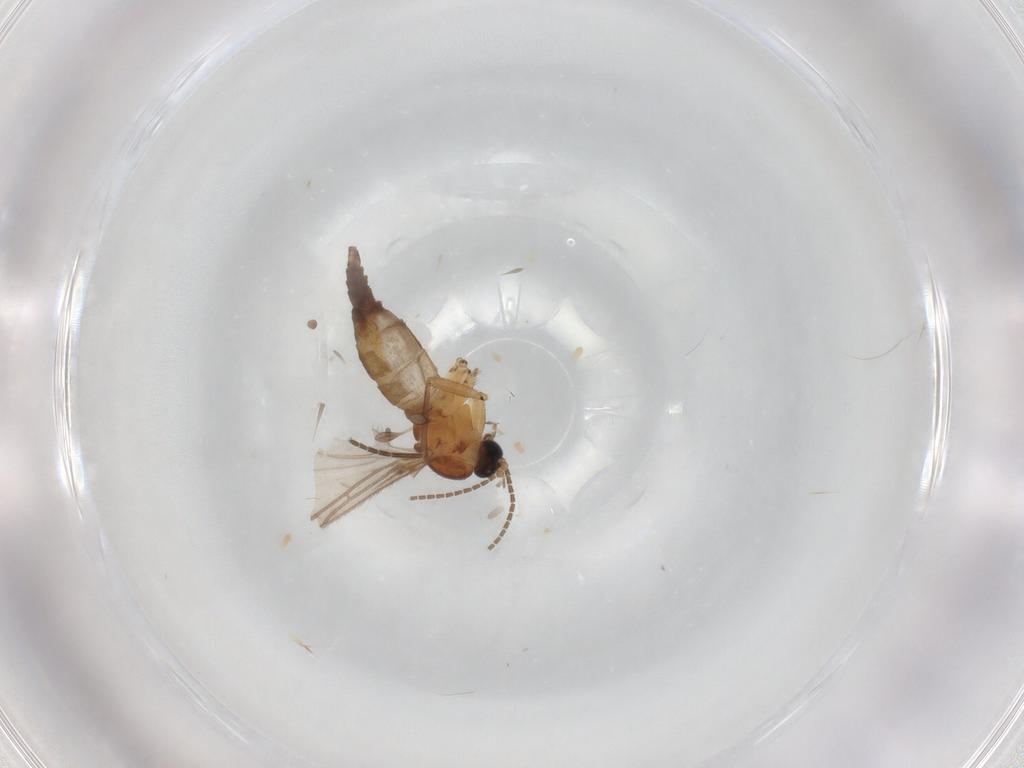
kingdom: Animalia
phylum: Arthropoda
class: Insecta
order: Diptera
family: Sciaridae
